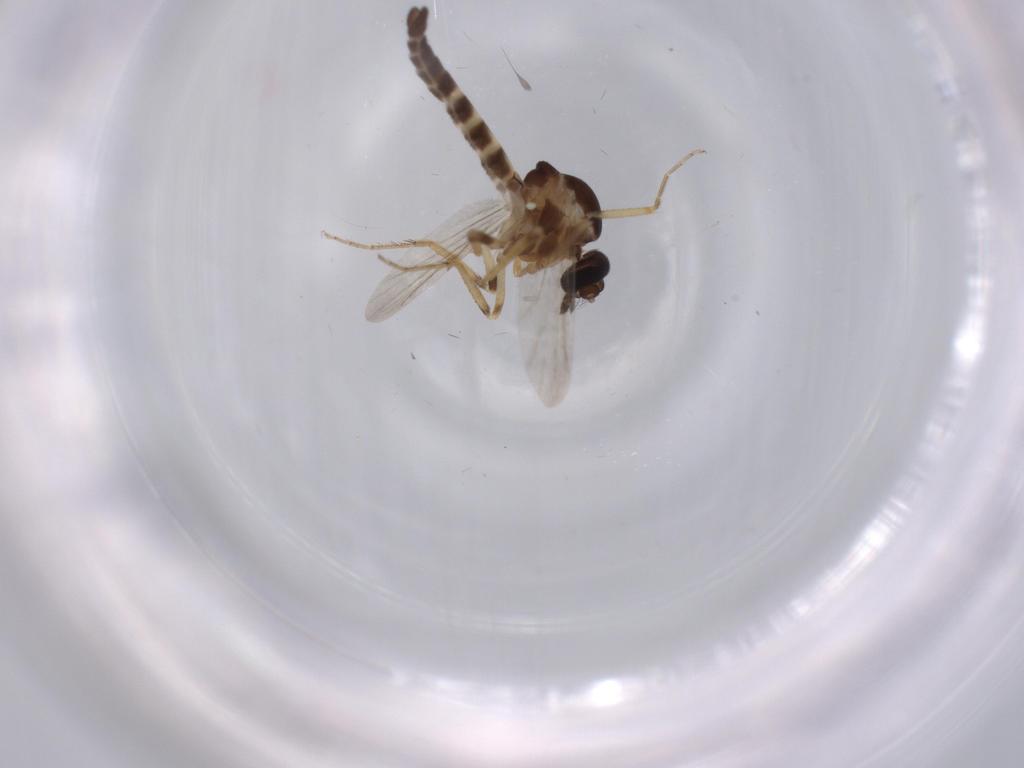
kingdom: Animalia
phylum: Arthropoda
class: Insecta
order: Diptera
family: Ceratopogonidae
